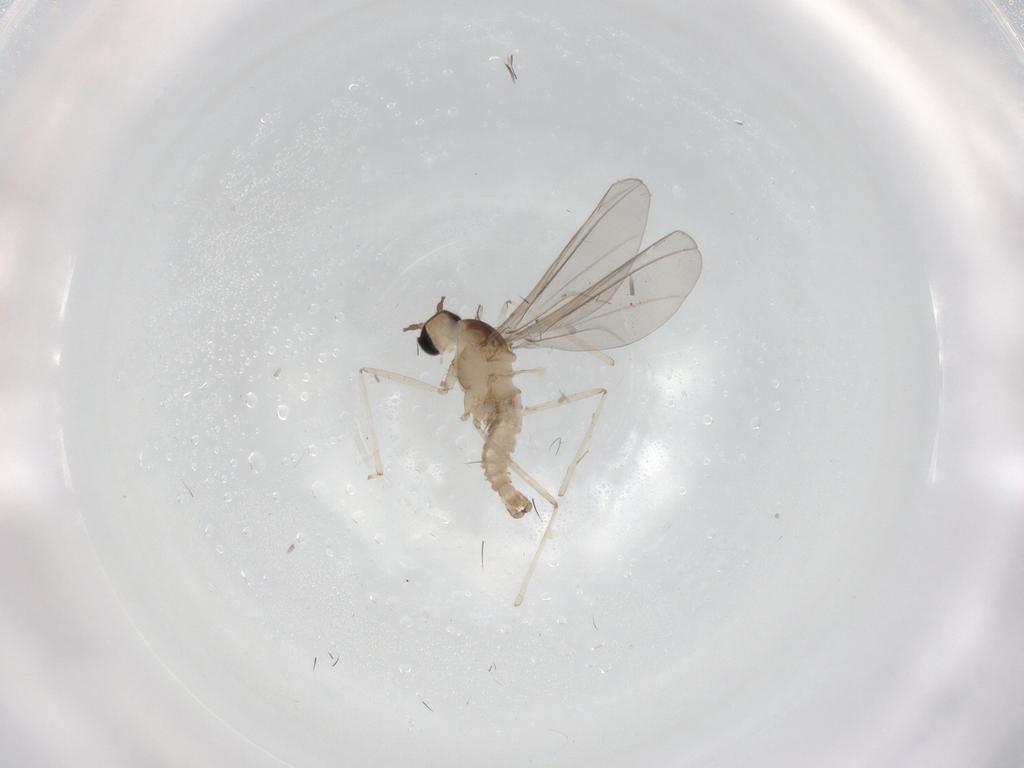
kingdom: Animalia
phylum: Arthropoda
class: Insecta
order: Diptera
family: Cecidomyiidae
